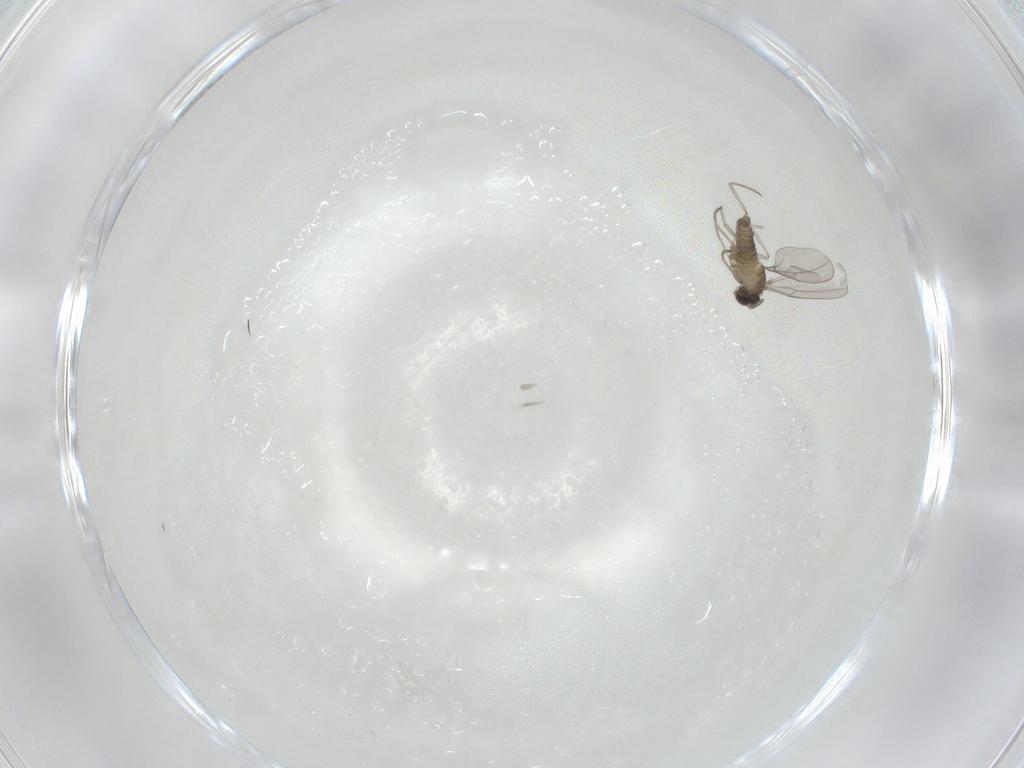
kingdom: Animalia
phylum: Arthropoda
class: Insecta
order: Diptera
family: Cecidomyiidae
